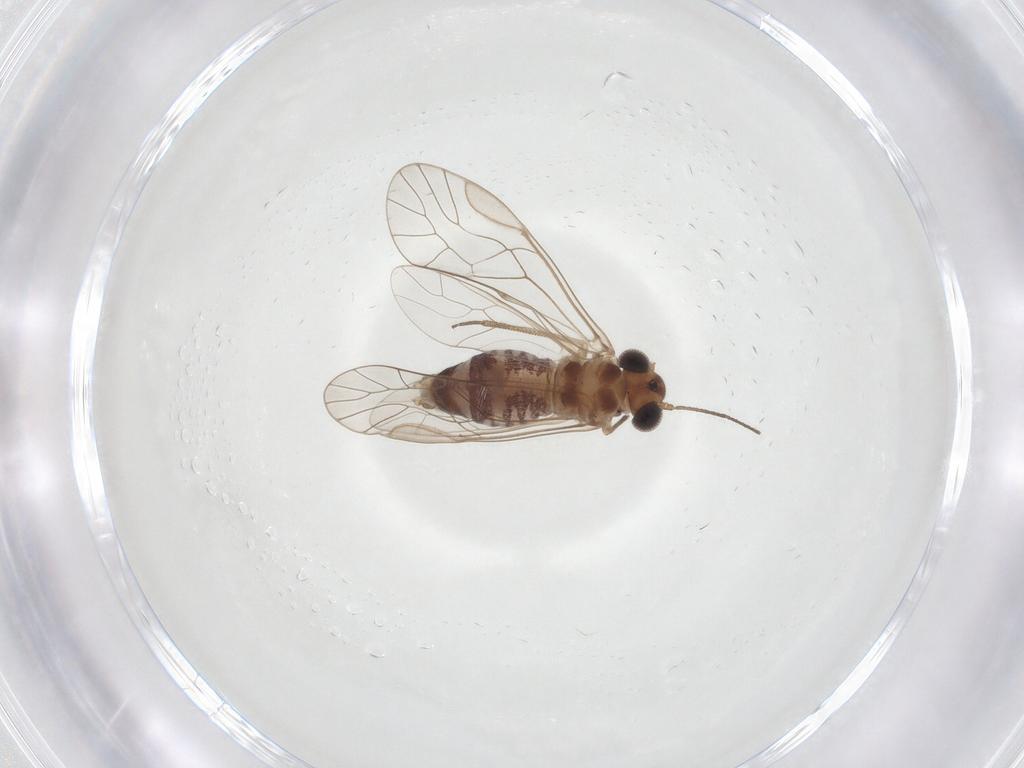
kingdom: Animalia
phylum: Arthropoda
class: Insecta
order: Psocodea
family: Psocidae
